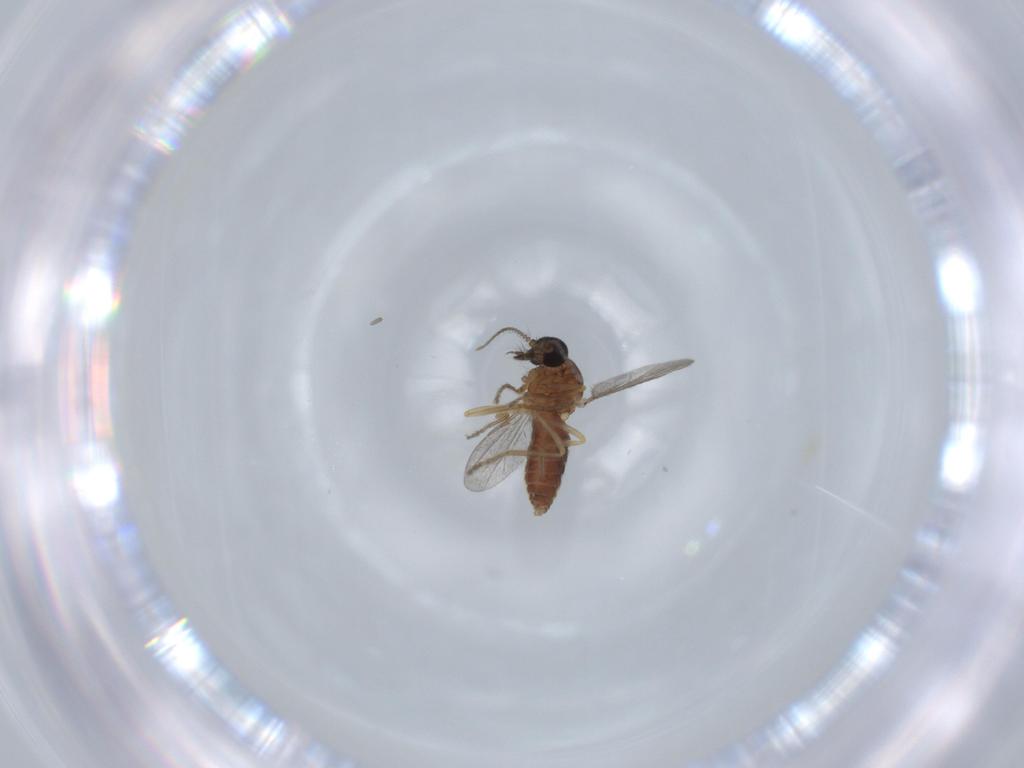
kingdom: Animalia
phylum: Arthropoda
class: Insecta
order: Diptera
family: Ceratopogonidae
